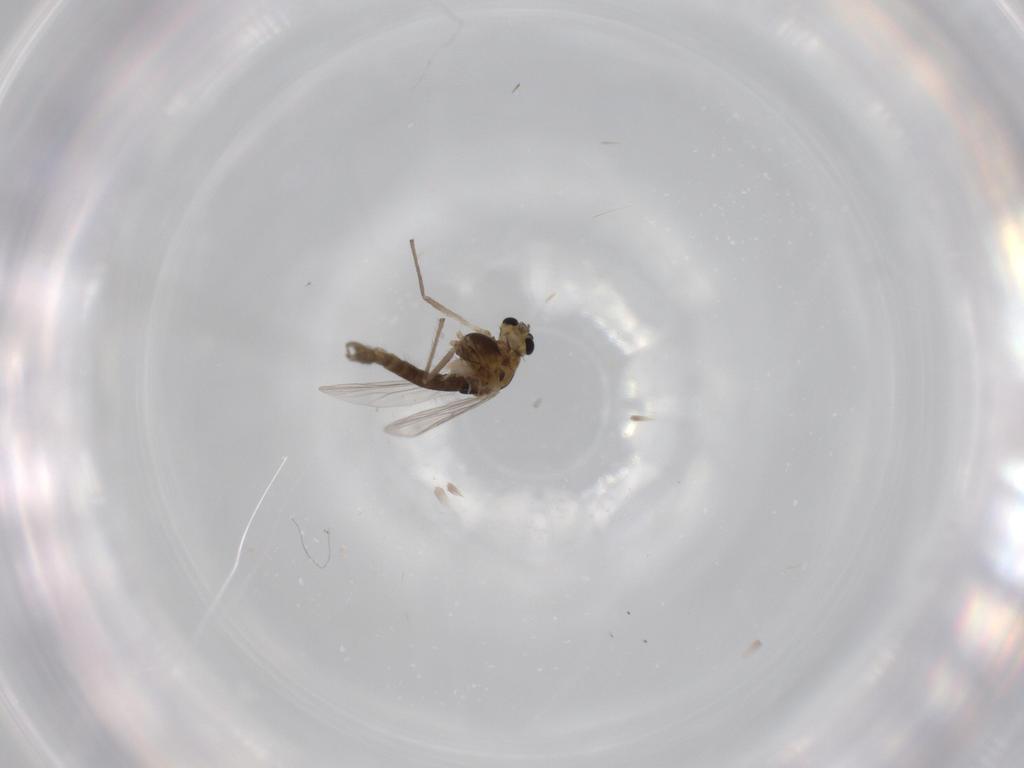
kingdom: Animalia
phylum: Arthropoda
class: Insecta
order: Diptera
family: Chironomidae
